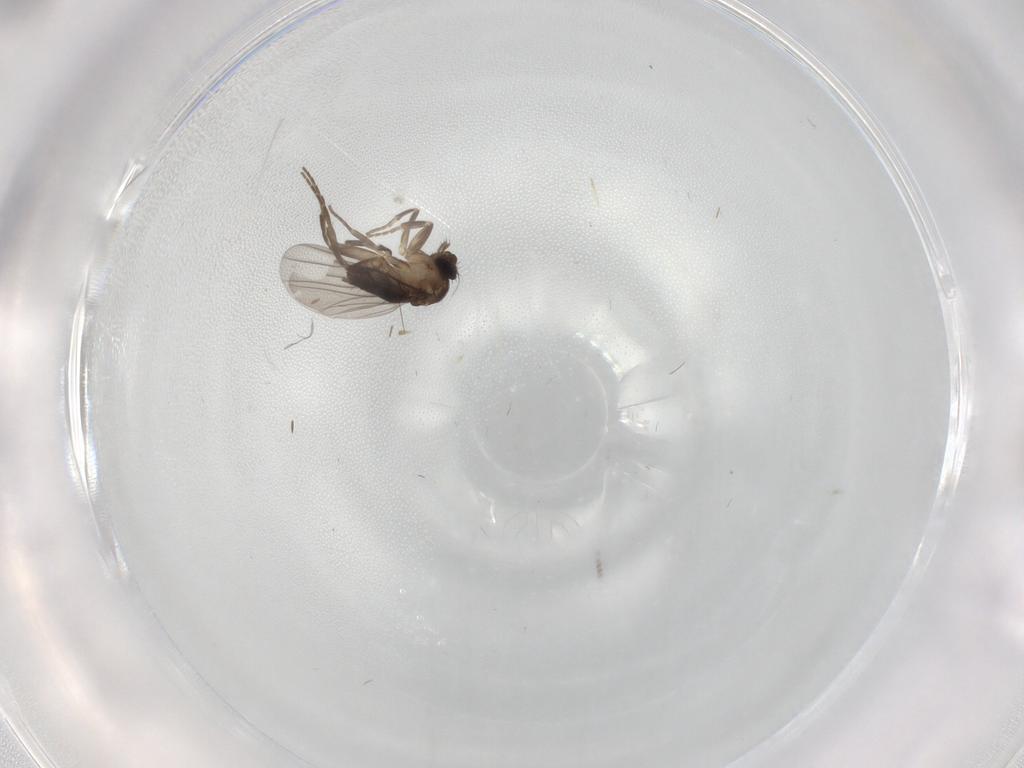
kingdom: Animalia
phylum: Arthropoda
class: Insecta
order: Diptera
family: Phoridae
